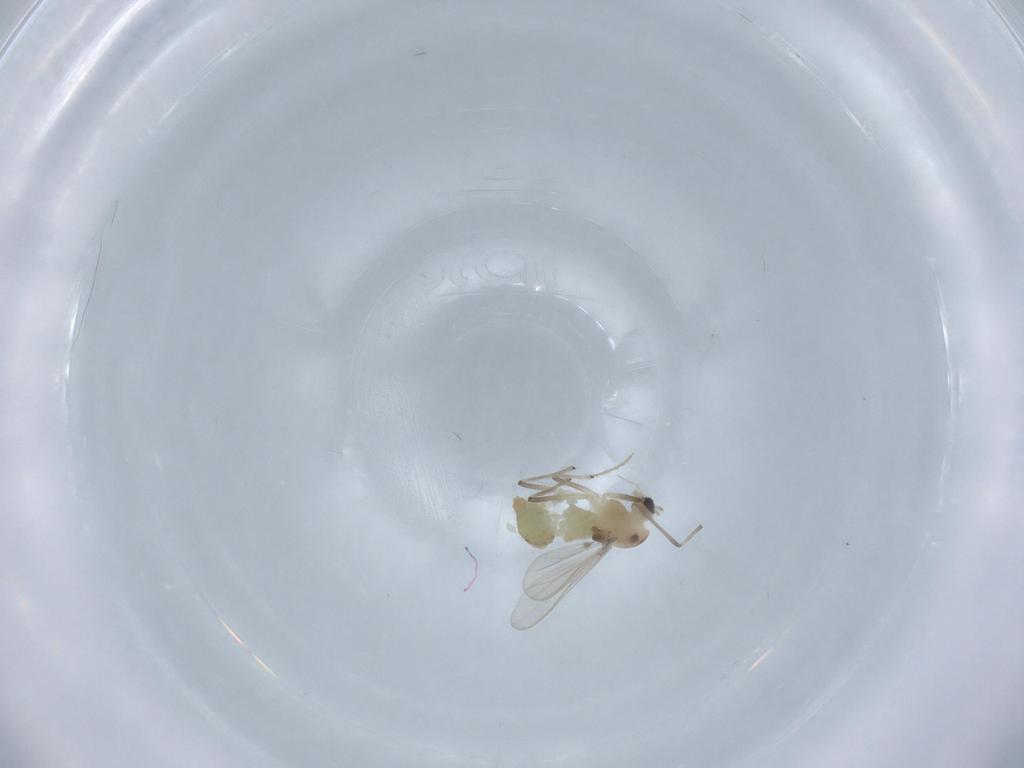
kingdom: Animalia
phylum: Arthropoda
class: Insecta
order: Diptera
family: Chironomidae
